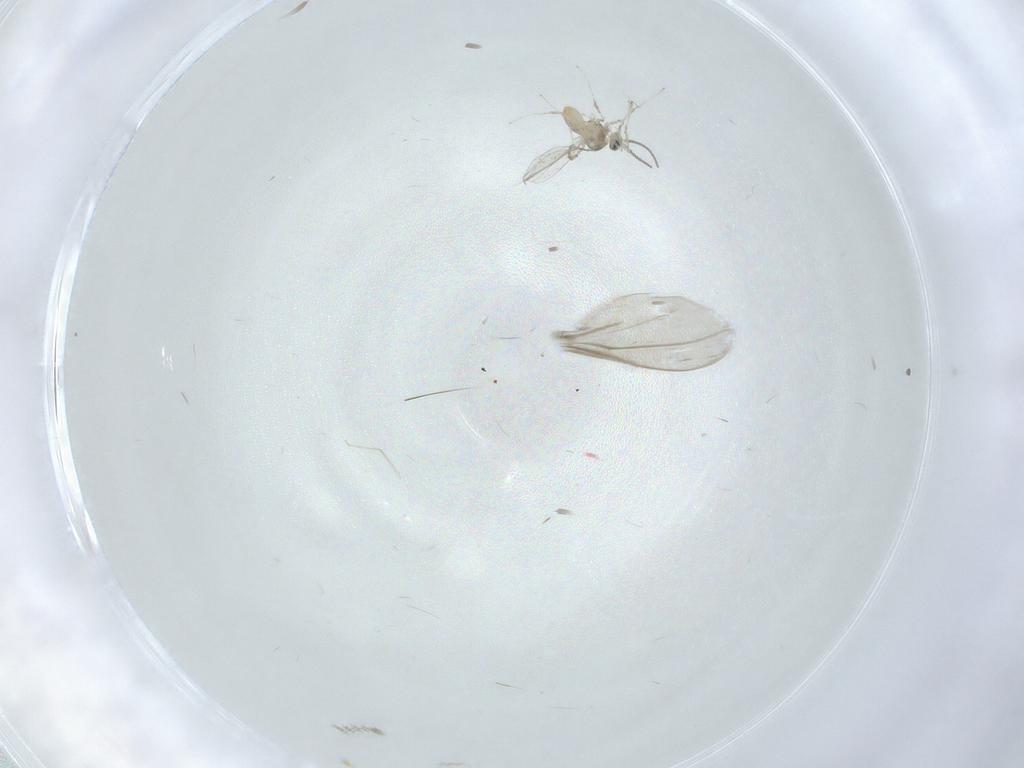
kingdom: Animalia
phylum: Arthropoda
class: Insecta
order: Diptera
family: Cecidomyiidae
